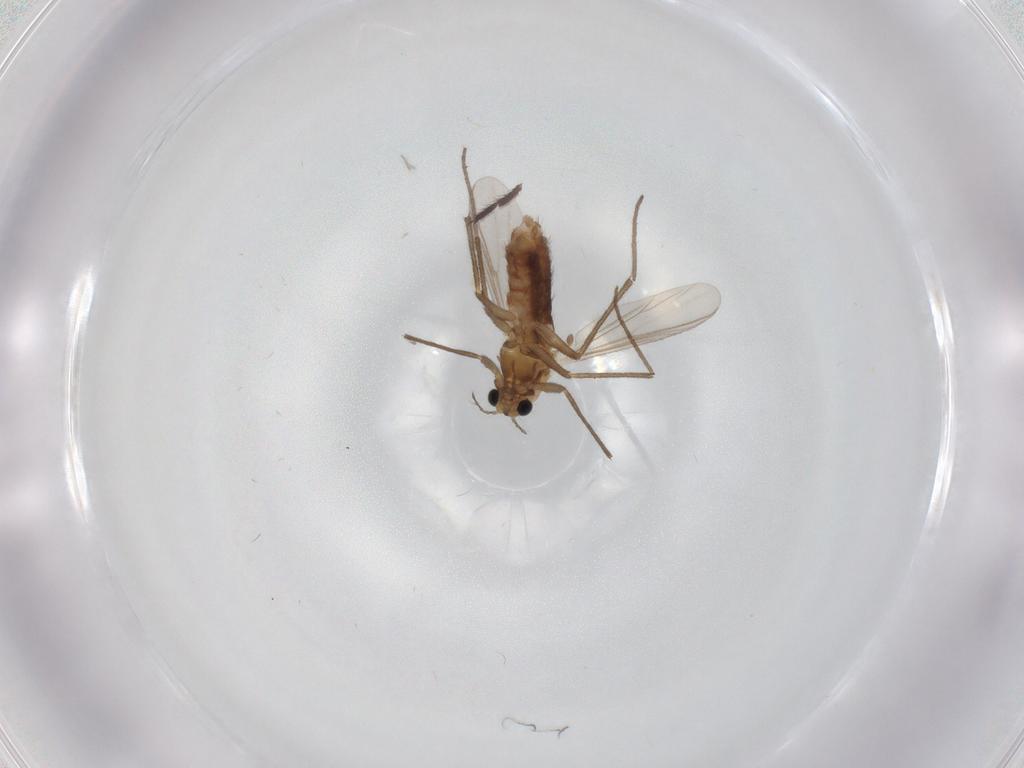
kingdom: Animalia
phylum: Arthropoda
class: Insecta
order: Diptera
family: Chironomidae
